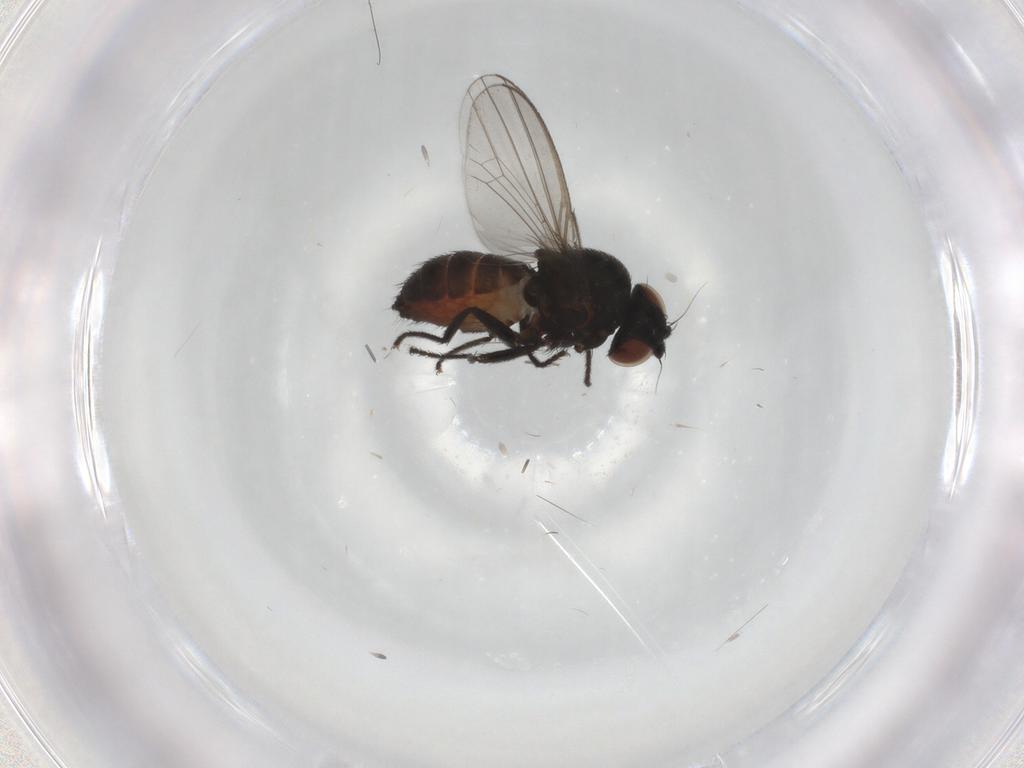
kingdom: Animalia
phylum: Arthropoda
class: Insecta
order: Diptera
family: Milichiidae
